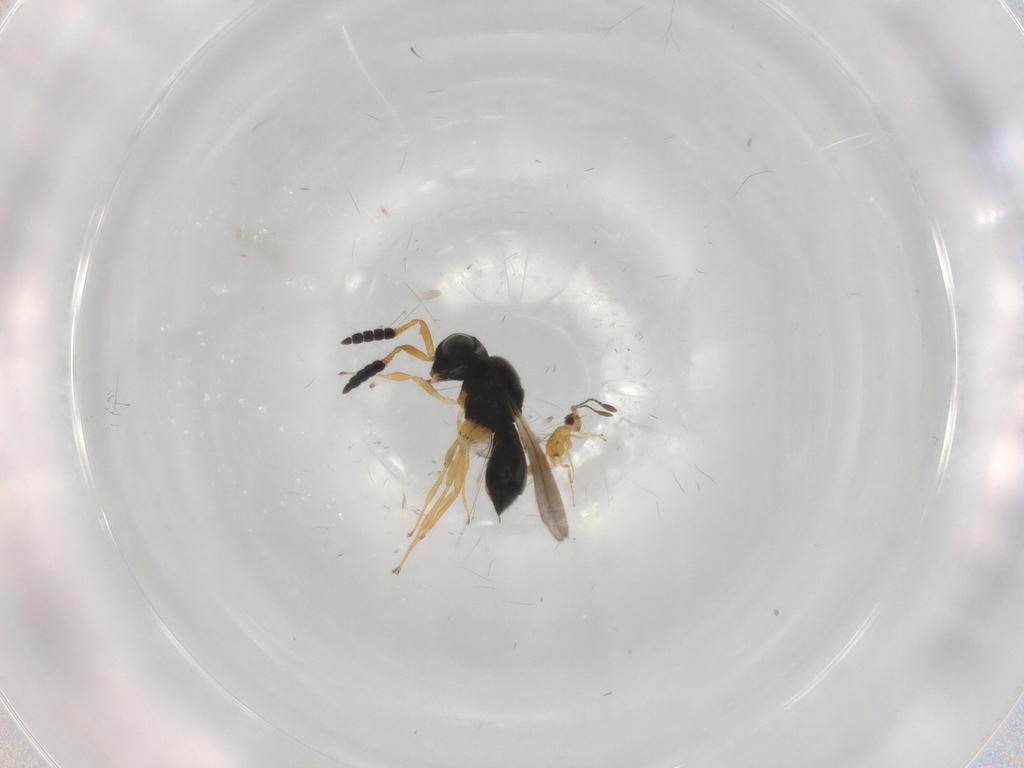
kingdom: Animalia
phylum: Arthropoda
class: Insecta
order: Hymenoptera
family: Scelionidae
